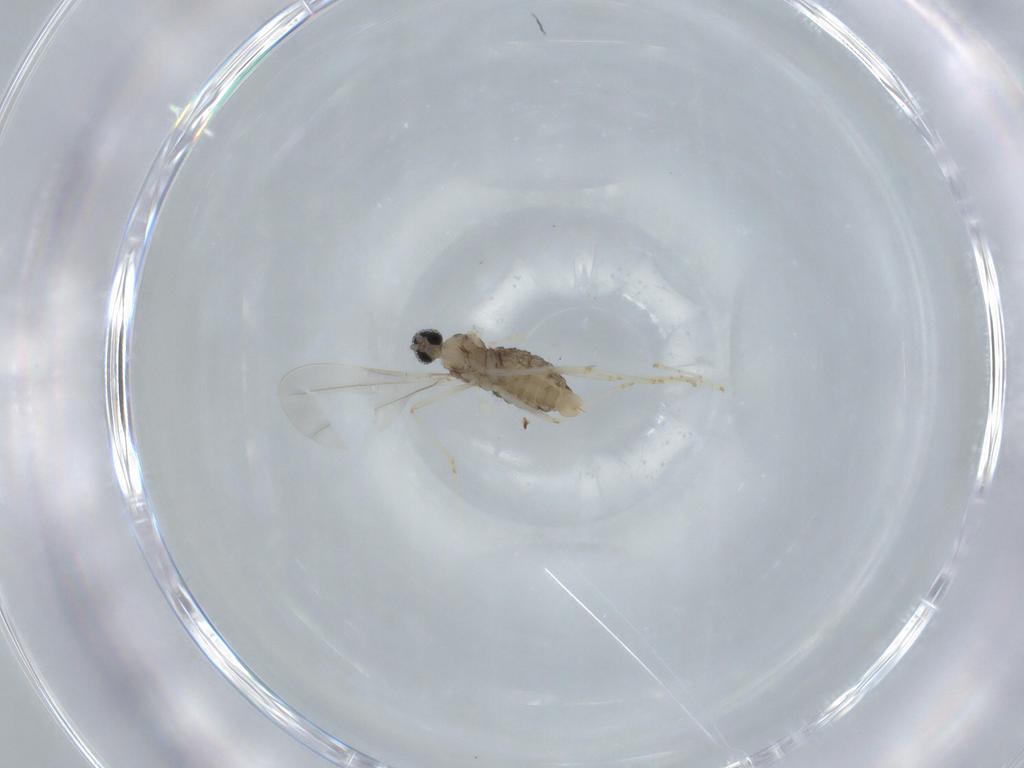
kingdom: Animalia
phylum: Arthropoda
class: Insecta
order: Diptera
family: Cecidomyiidae
